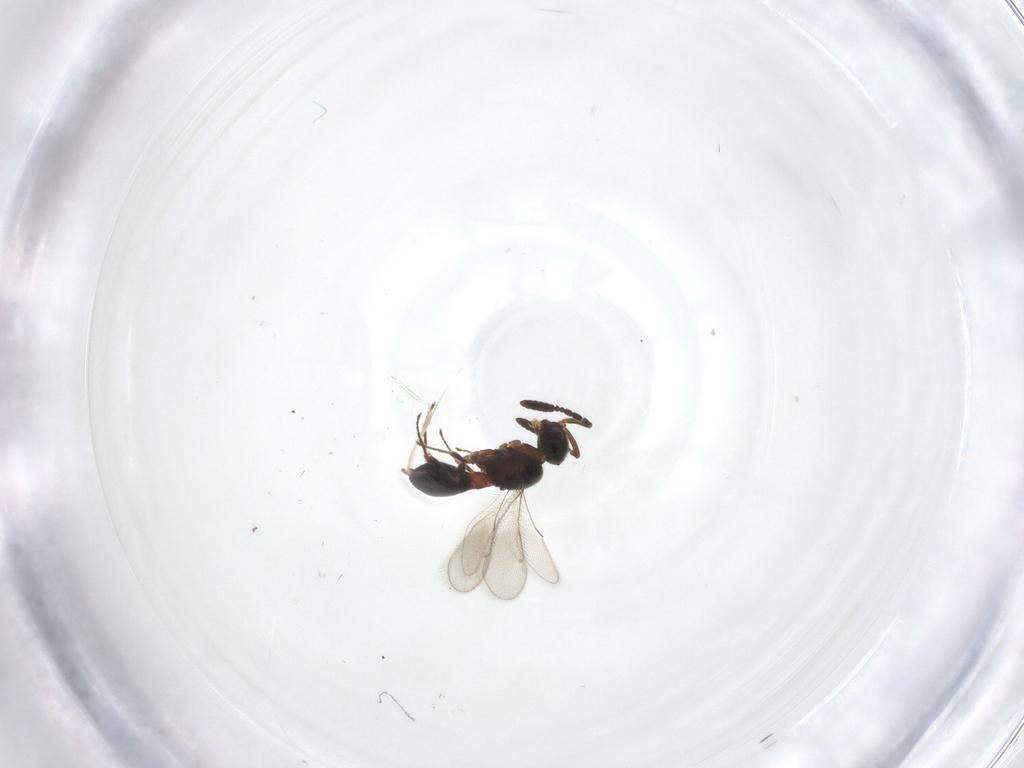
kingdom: Animalia
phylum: Arthropoda
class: Insecta
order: Hymenoptera
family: Scelionidae
